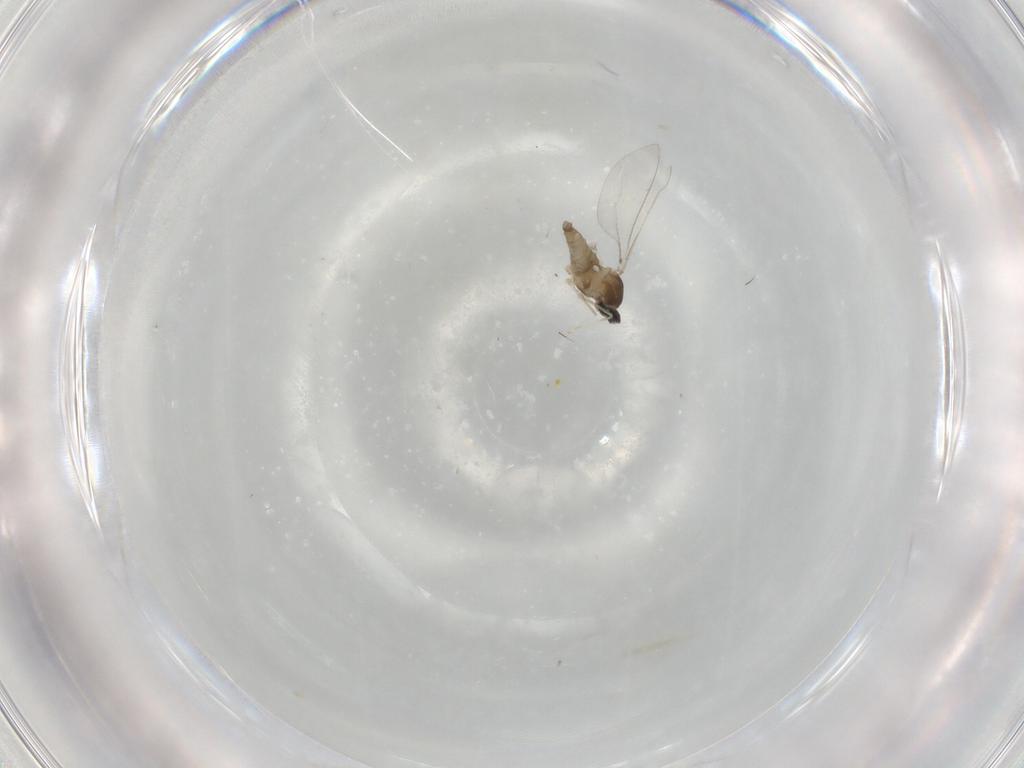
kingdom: Animalia
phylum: Arthropoda
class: Insecta
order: Diptera
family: Cecidomyiidae
